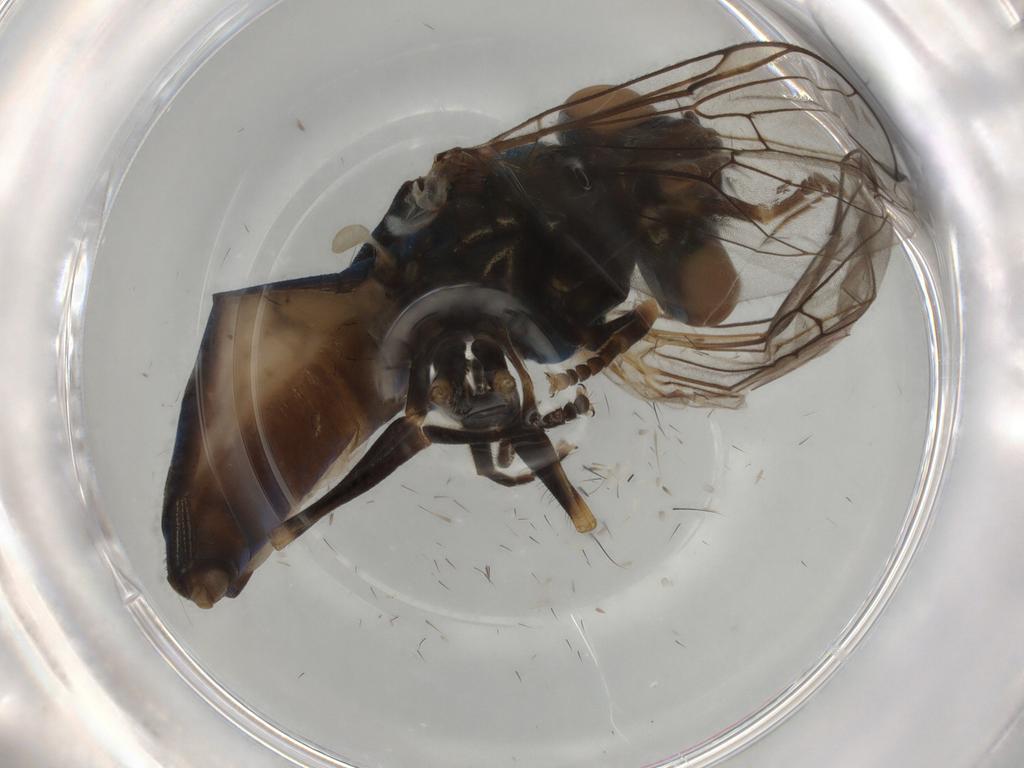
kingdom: Animalia
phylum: Arthropoda
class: Insecta
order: Diptera
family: Syrphidae
